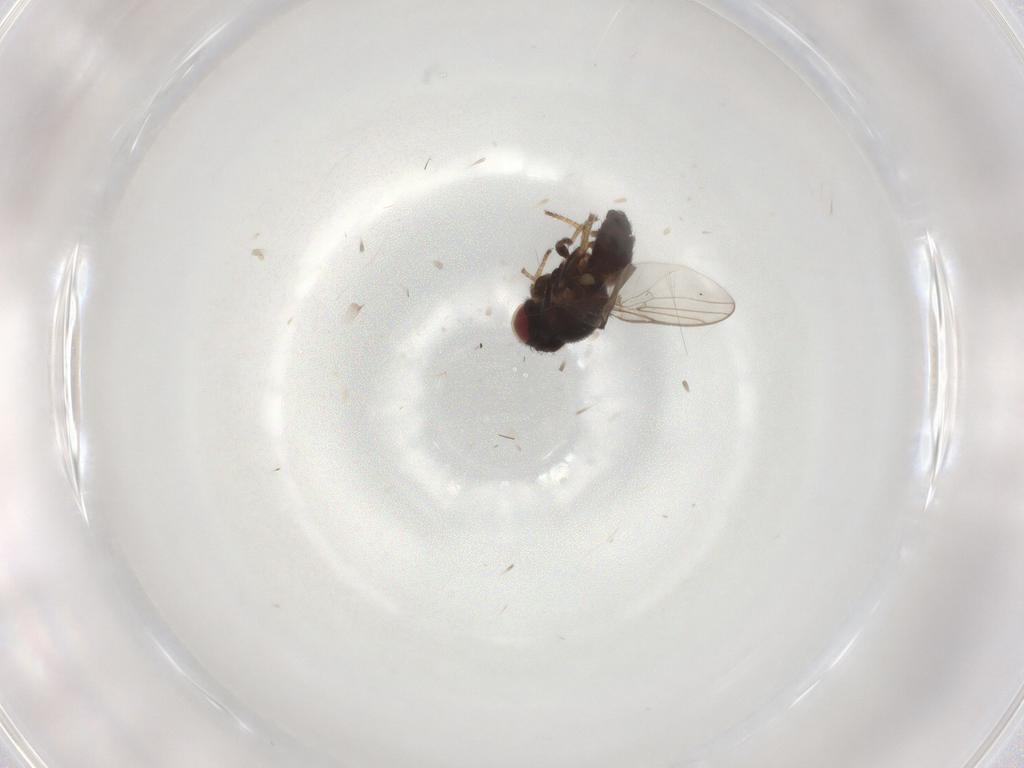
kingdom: Animalia
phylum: Arthropoda
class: Insecta
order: Diptera
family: Chloropidae
